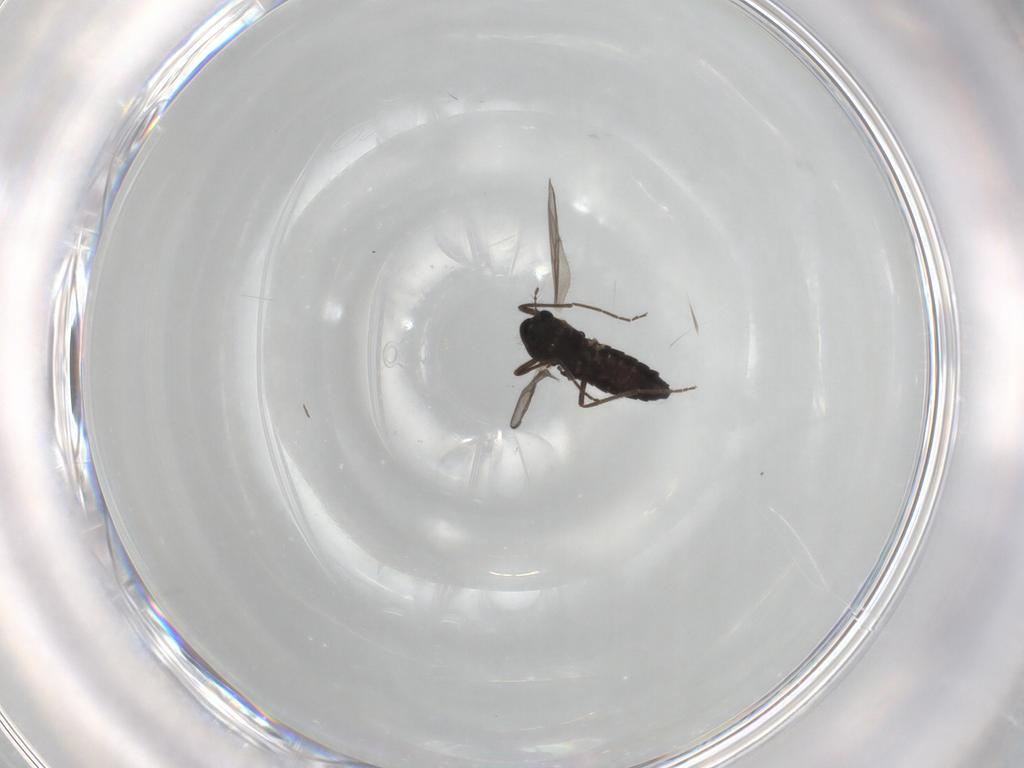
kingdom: Animalia
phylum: Arthropoda
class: Insecta
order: Diptera
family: Chironomidae
